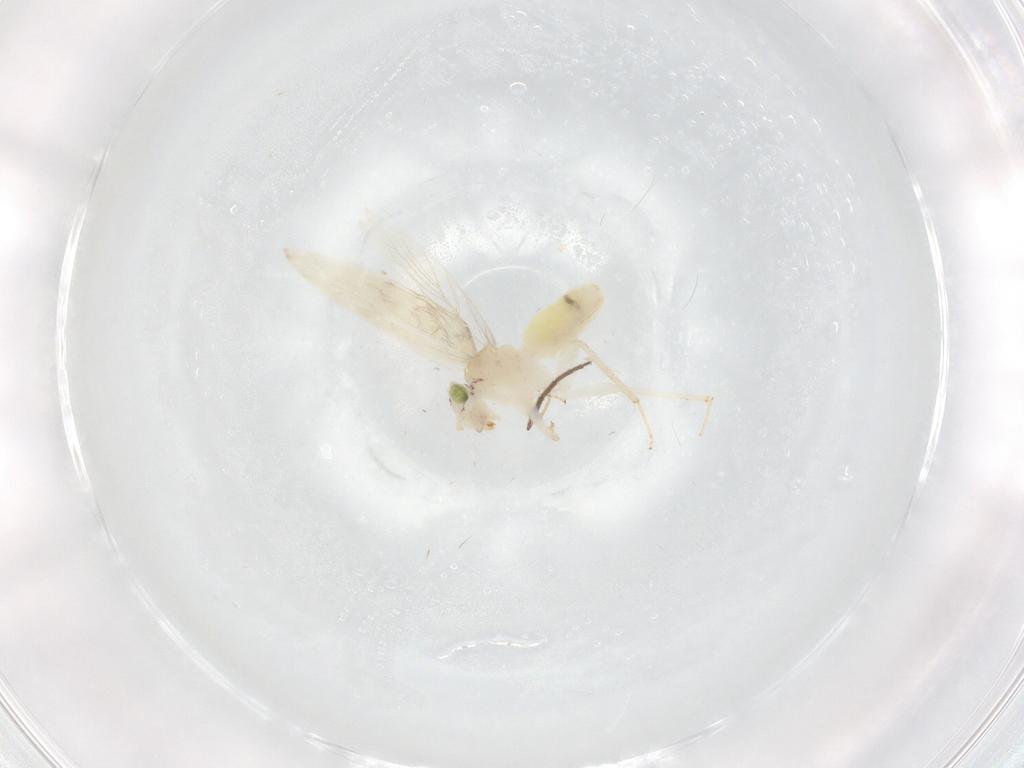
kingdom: Animalia
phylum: Arthropoda
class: Insecta
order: Psocodea
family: Lepidopsocidae
